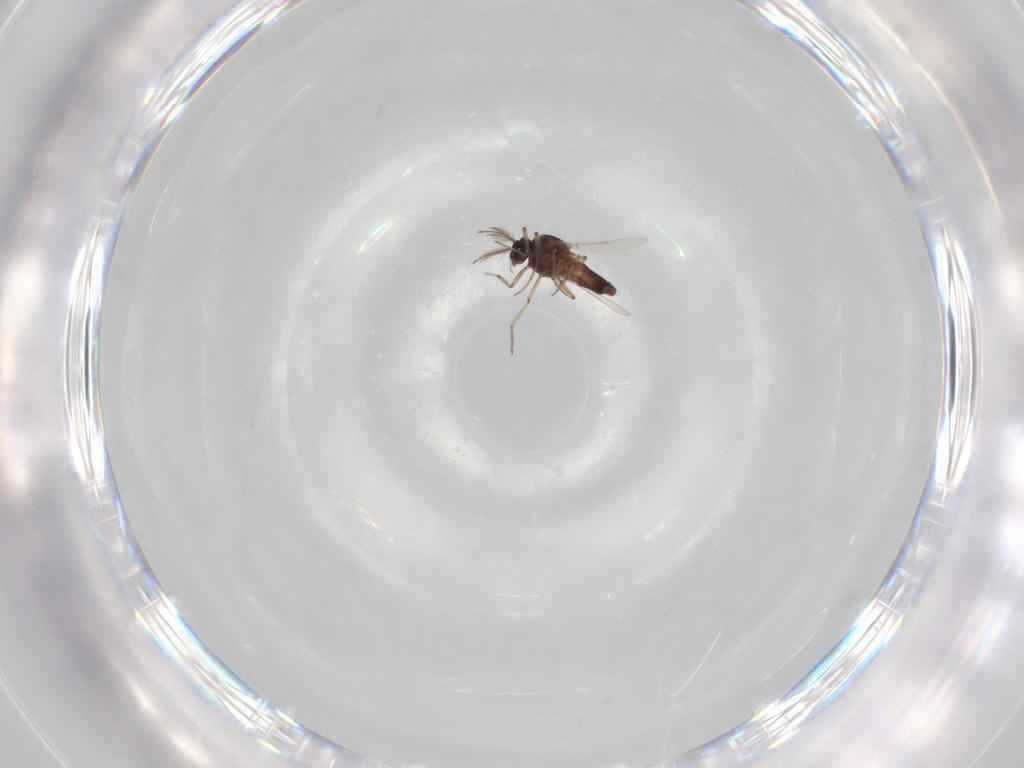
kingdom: Animalia
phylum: Arthropoda
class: Insecta
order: Diptera
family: Ceratopogonidae
